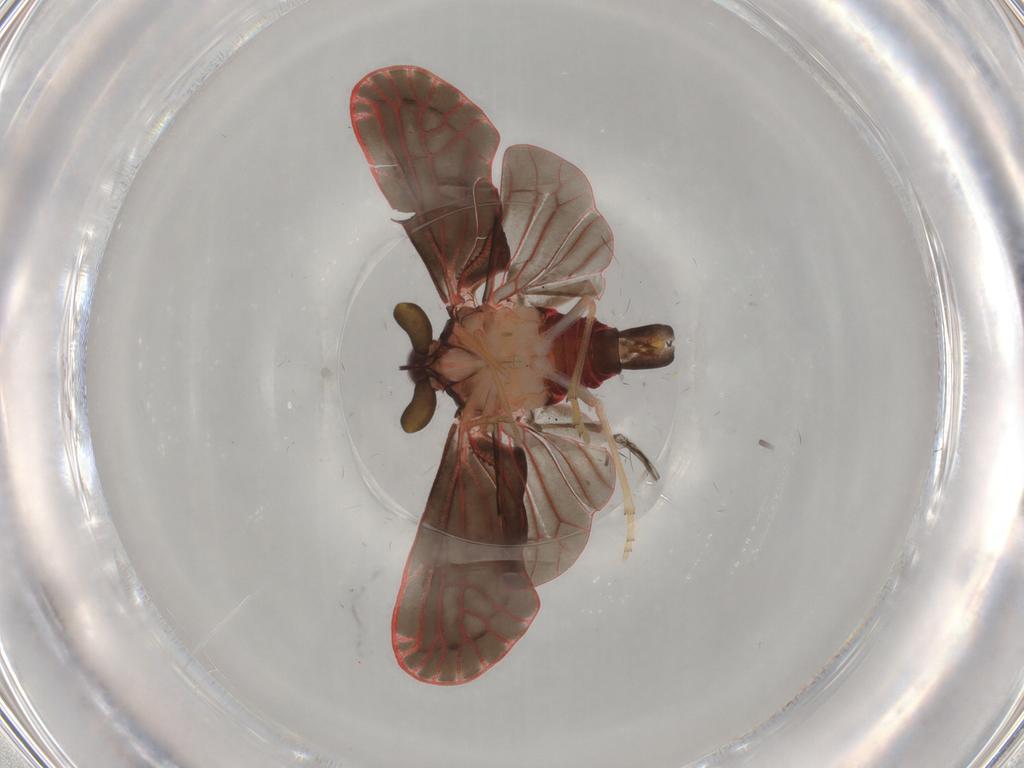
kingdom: Animalia
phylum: Arthropoda
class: Insecta
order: Hemiptera
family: Derbidae
